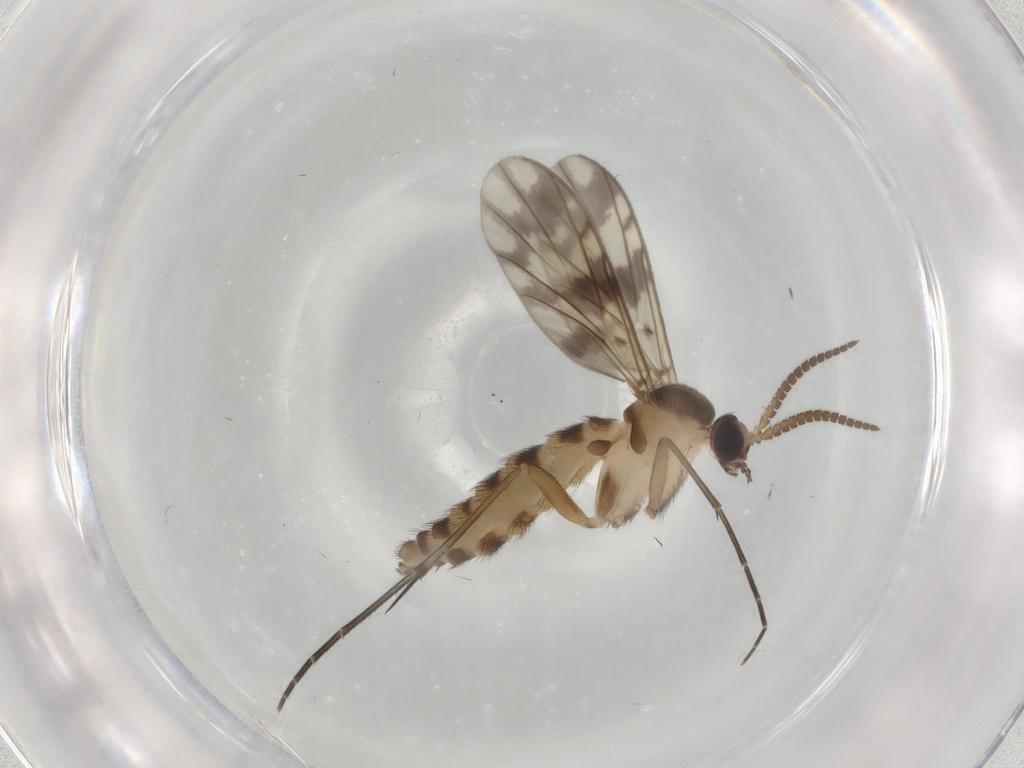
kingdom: Animalia
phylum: Arthropoda
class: Insecta
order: Diptera
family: Keroplatidae
